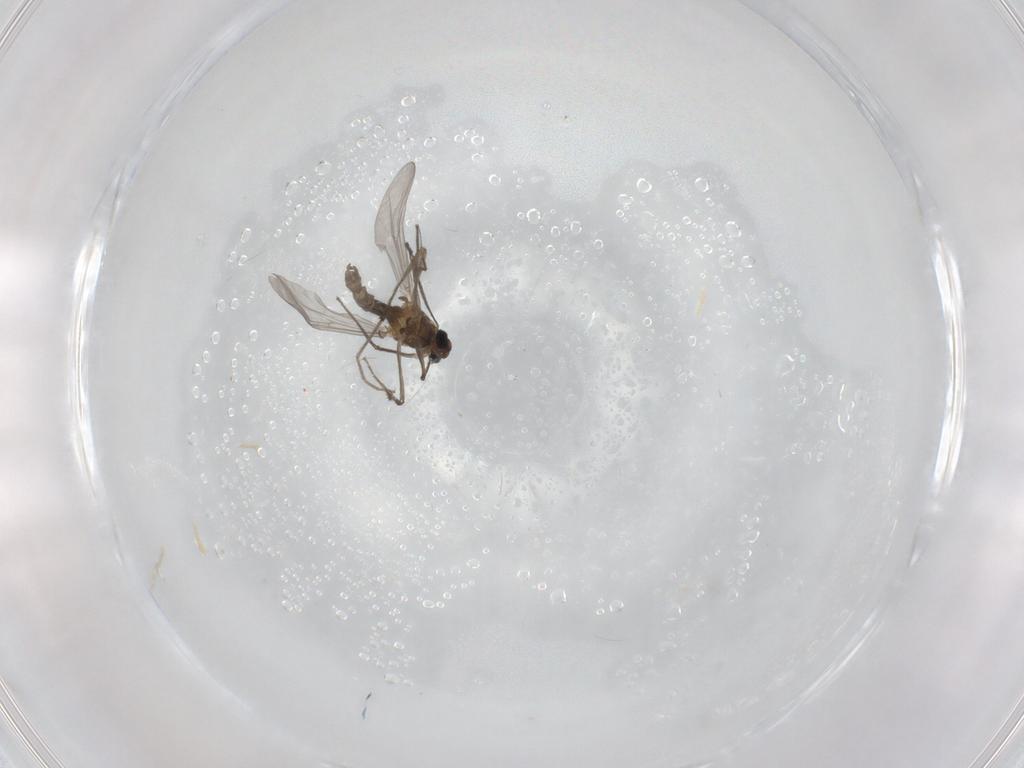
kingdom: Animalia
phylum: Arthropoda
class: Insecta
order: Diptera
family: Chironomidae
